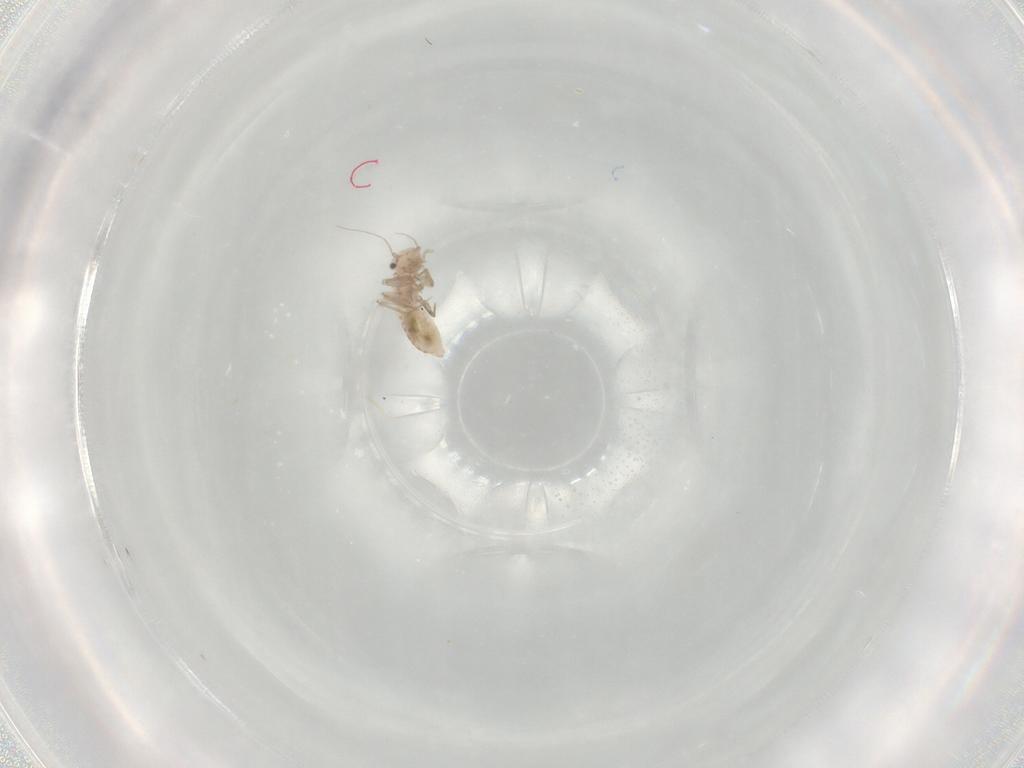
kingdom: Animalia
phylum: Arthropoda
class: Insecta
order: Psocodea
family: Lepidopsocidae
